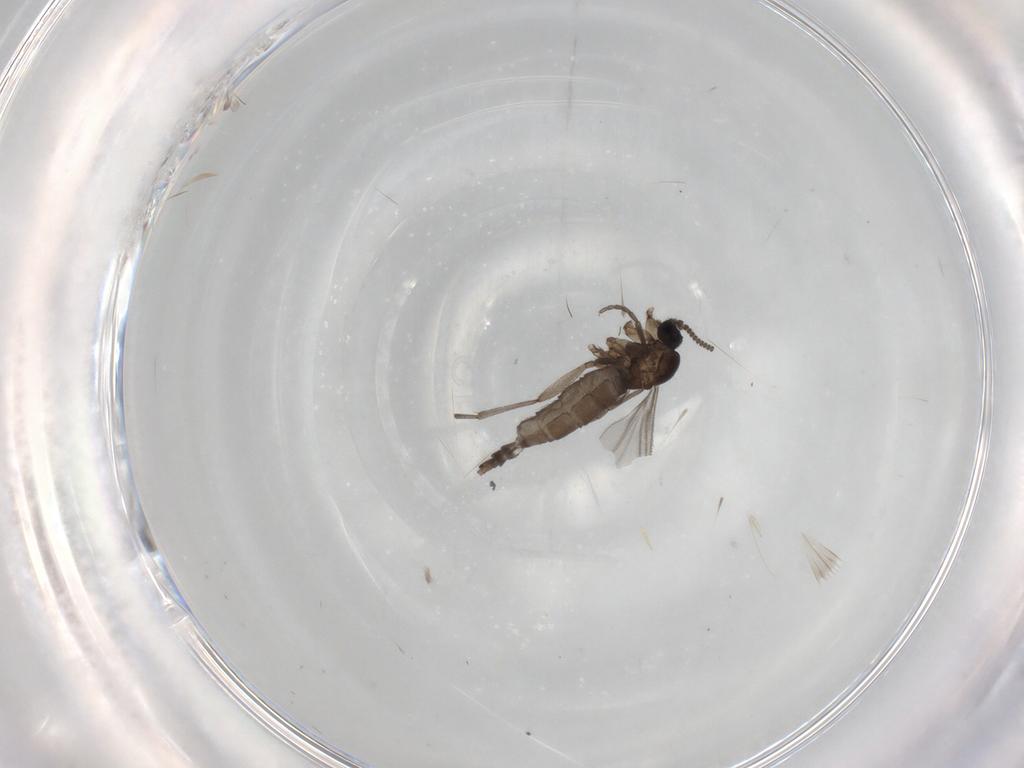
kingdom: Animalia
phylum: Arthropoda
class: Insecta
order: Diptera
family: Sciaridae
